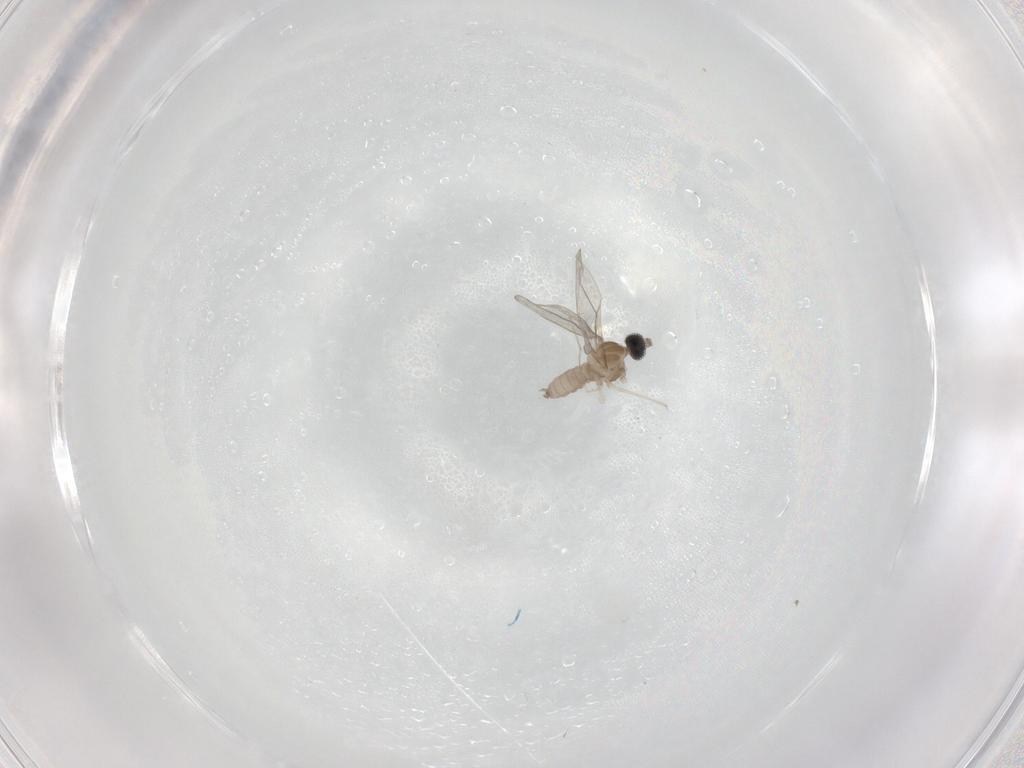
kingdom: Animalia
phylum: Arthropoda
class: Insecta
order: Diptera
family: Cecidomyiidae
